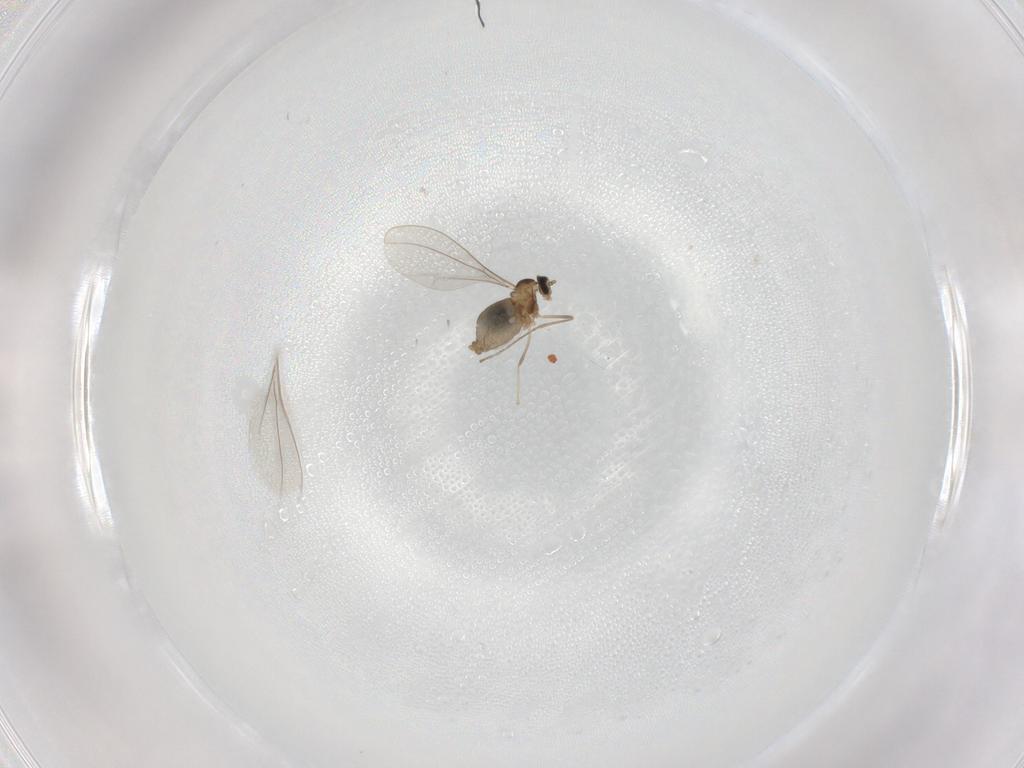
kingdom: Animalia
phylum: Arthropoda
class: Insecta
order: Diptera
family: Cecidomyiidae
